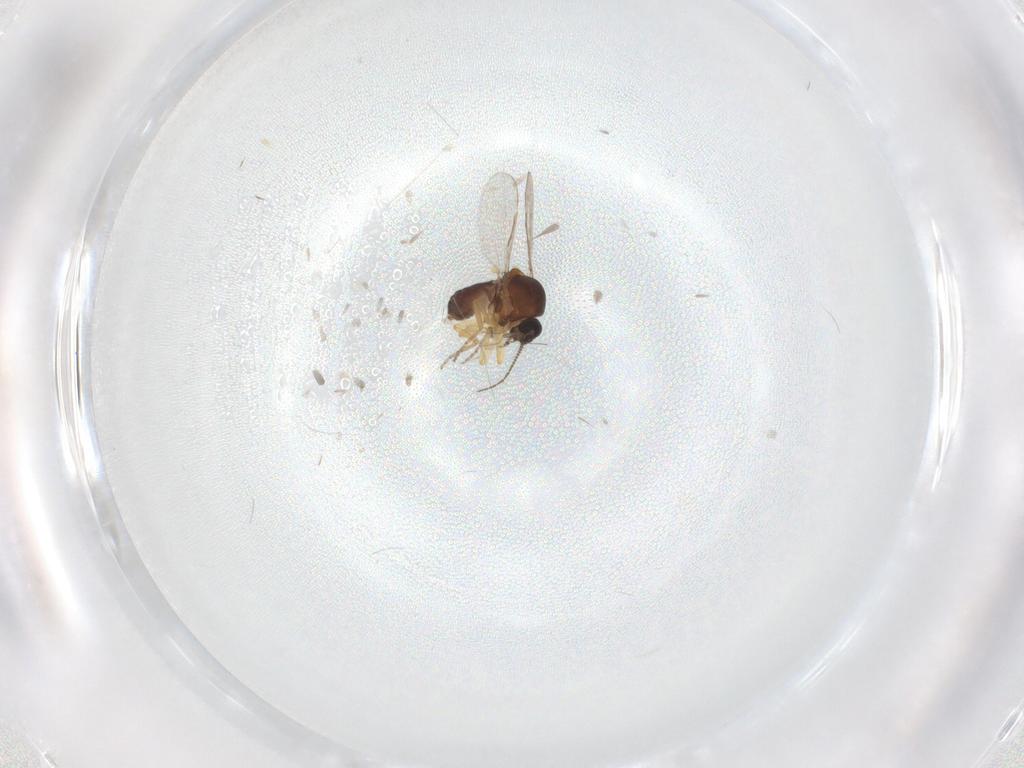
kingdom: Animalia
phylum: Arthropoda
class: Insecta
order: Diptera
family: Ceratopogonidae
